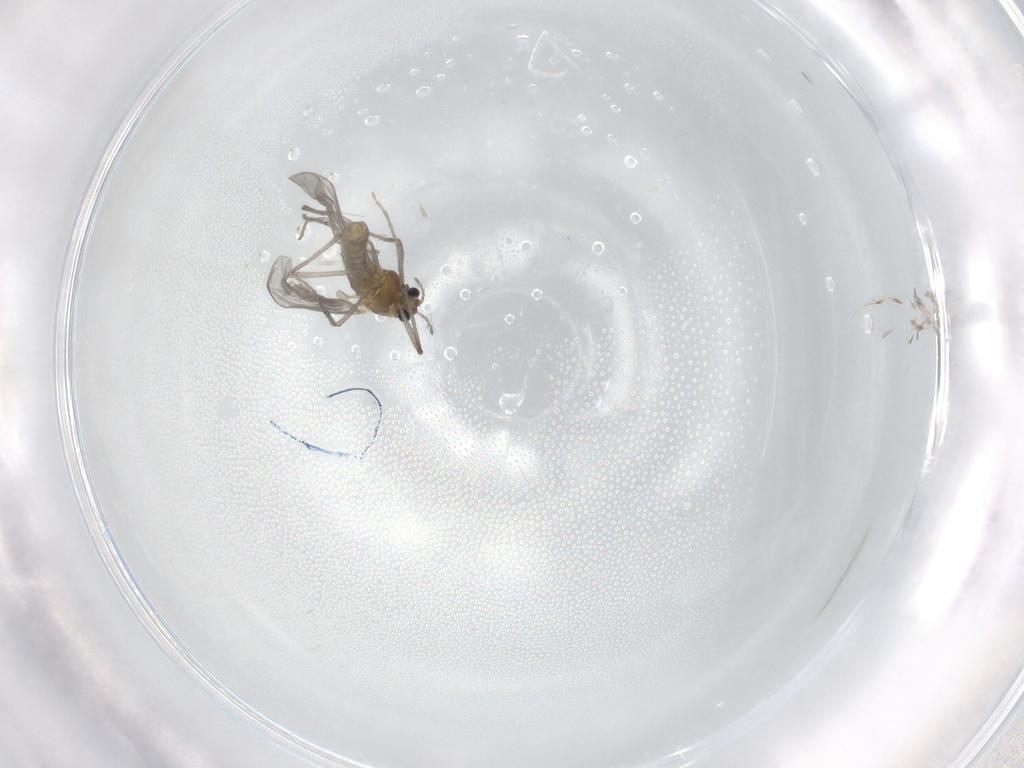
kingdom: Animalia
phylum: Arthropoda
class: Insecta
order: Diptera
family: Chironomidae
